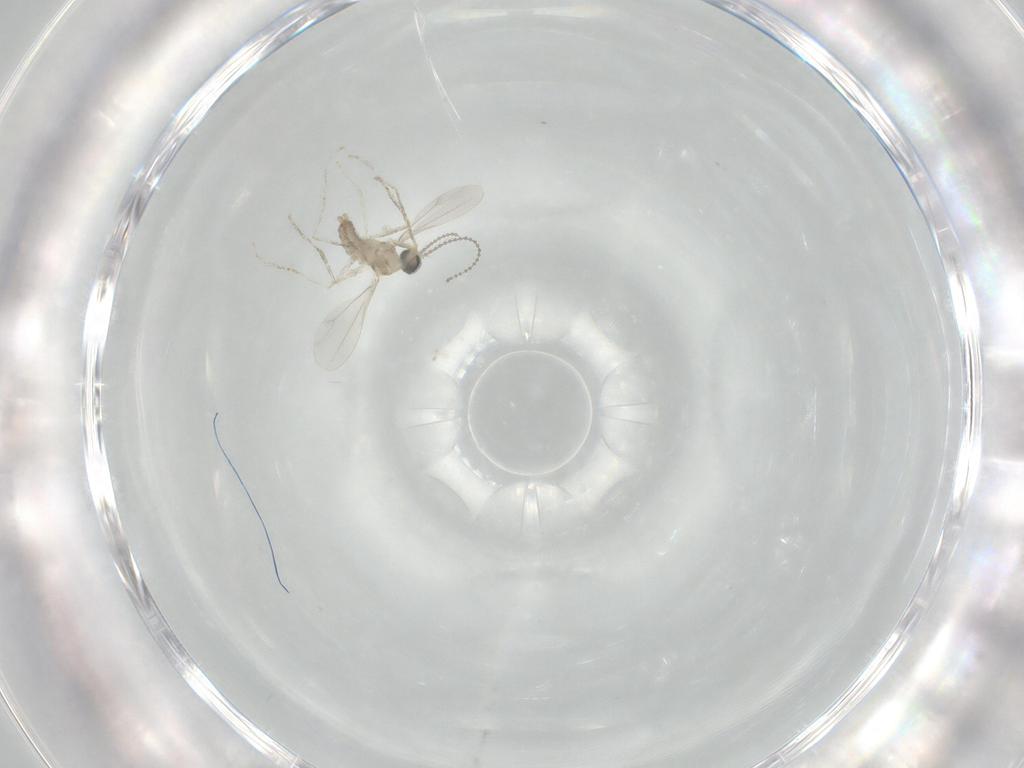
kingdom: Animalia
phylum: Arthropoda
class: Insecta
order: Diptera
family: Cecidomyiidae
